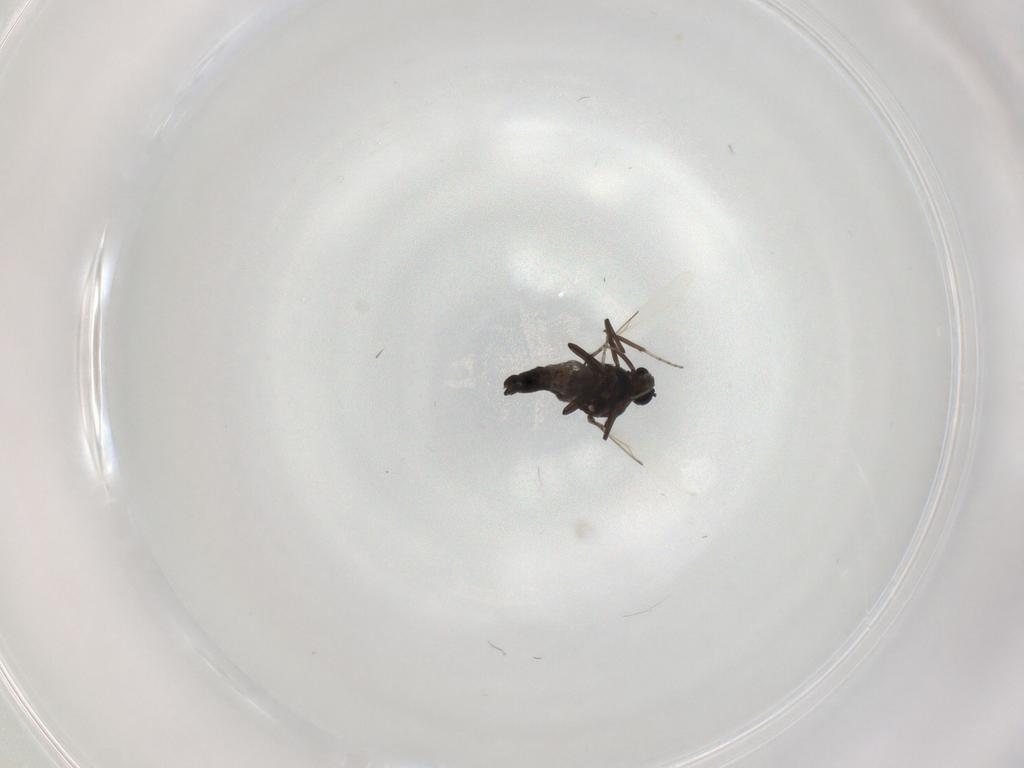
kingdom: Animalia
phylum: Arthropoda
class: Insecta
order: Diptera
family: Ceratopogonidae
